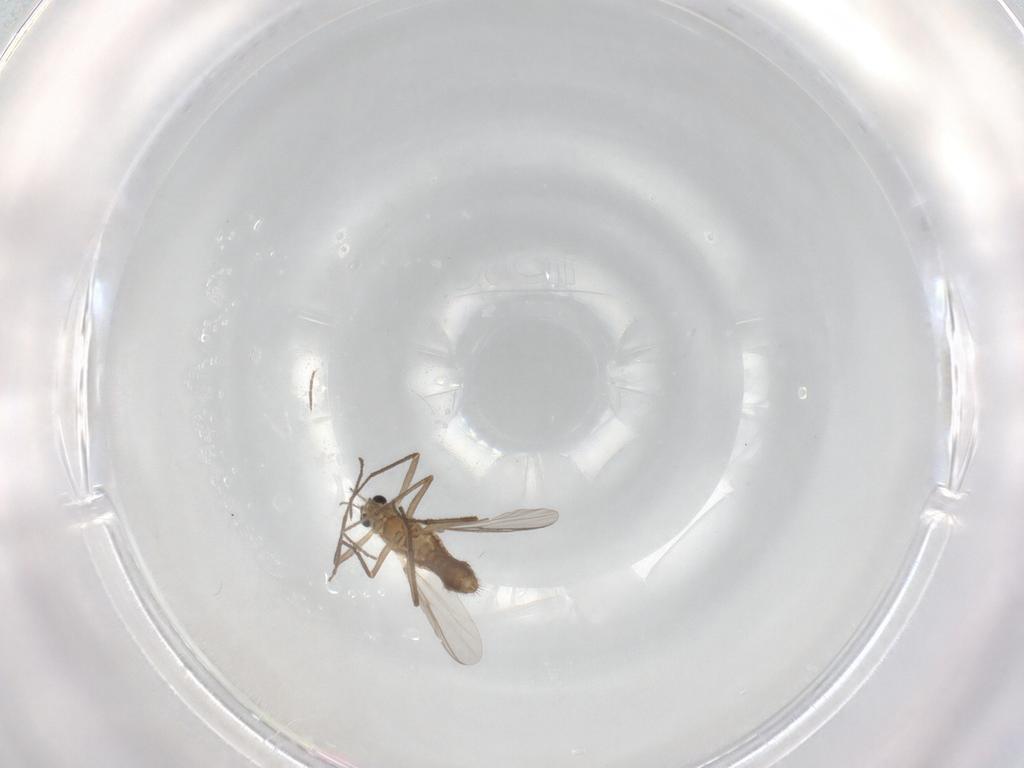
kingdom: Animalia
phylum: Arthropoda
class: Insecta
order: Diptera
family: Chironomidae
